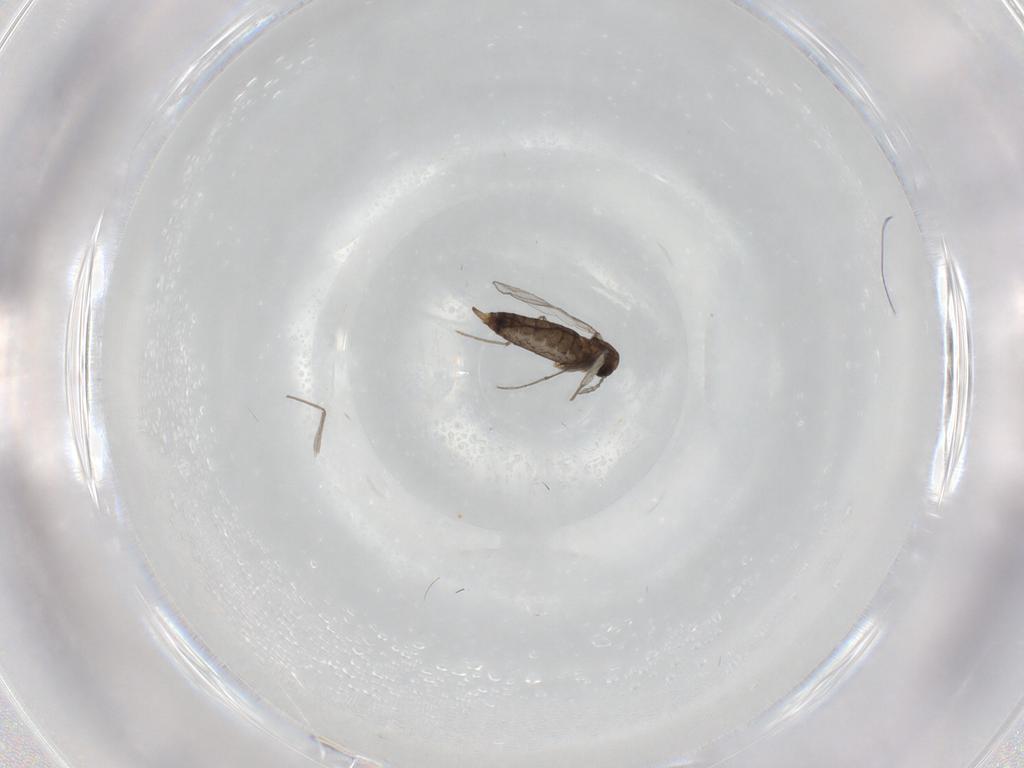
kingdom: Animalia
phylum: Arthropoda
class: Insecta
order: Diptera
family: Chironomidae
